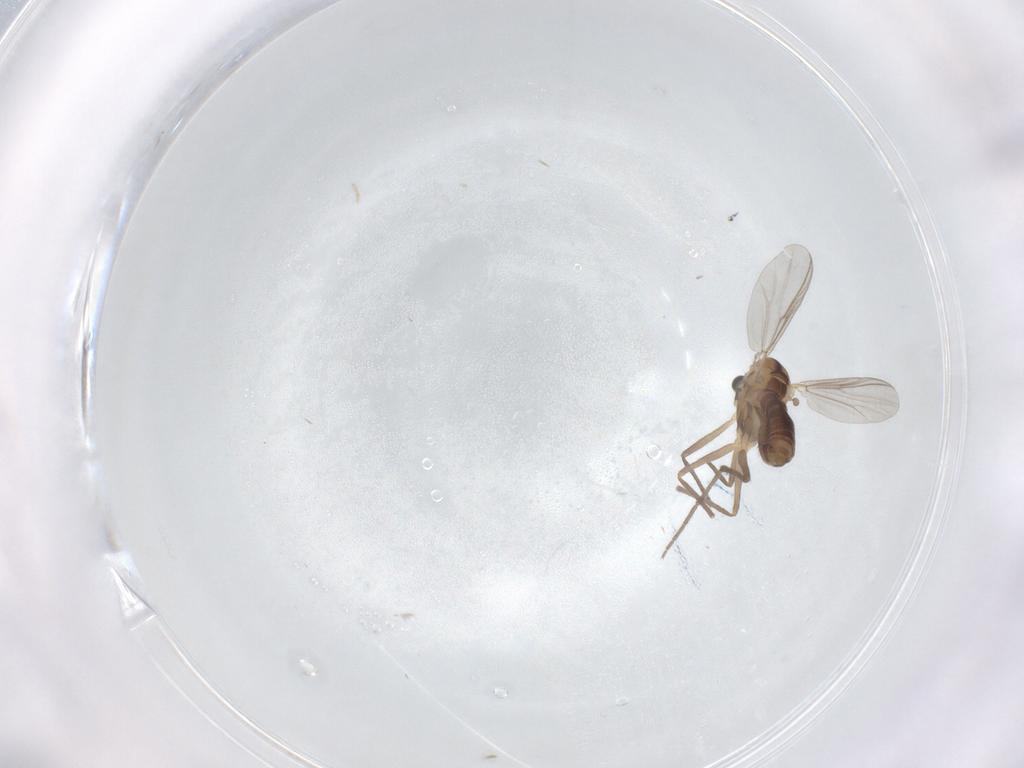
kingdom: Animalia
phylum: Arthropoda
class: Insecta
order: Diptera
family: Chironomidae
